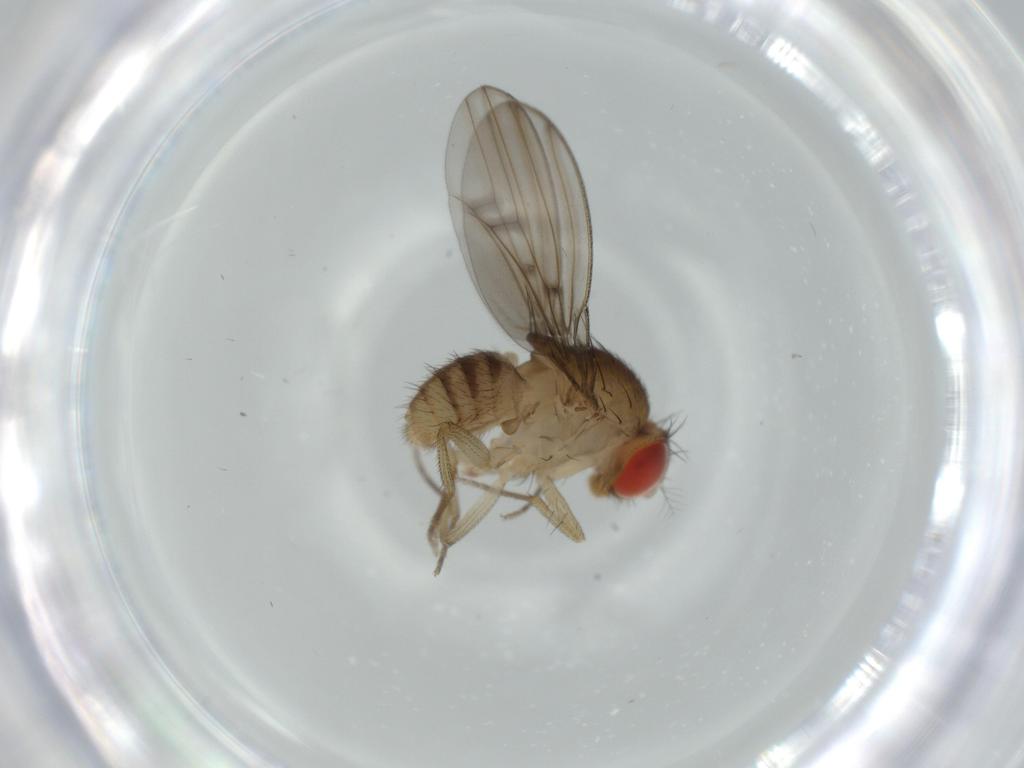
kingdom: Animalia
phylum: Arthropoda
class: Insecta
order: Diptera
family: Drosophilidae
